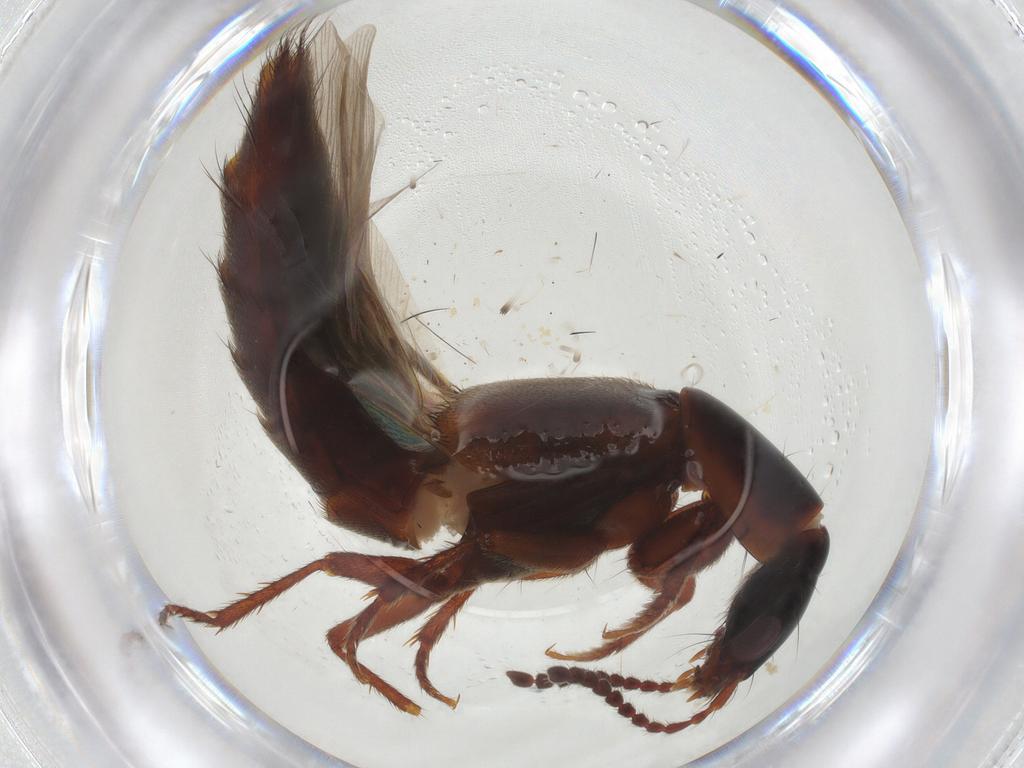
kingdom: Animalia
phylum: Arthropoda
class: Insecta
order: Coleoptera
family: Staphylinidae
